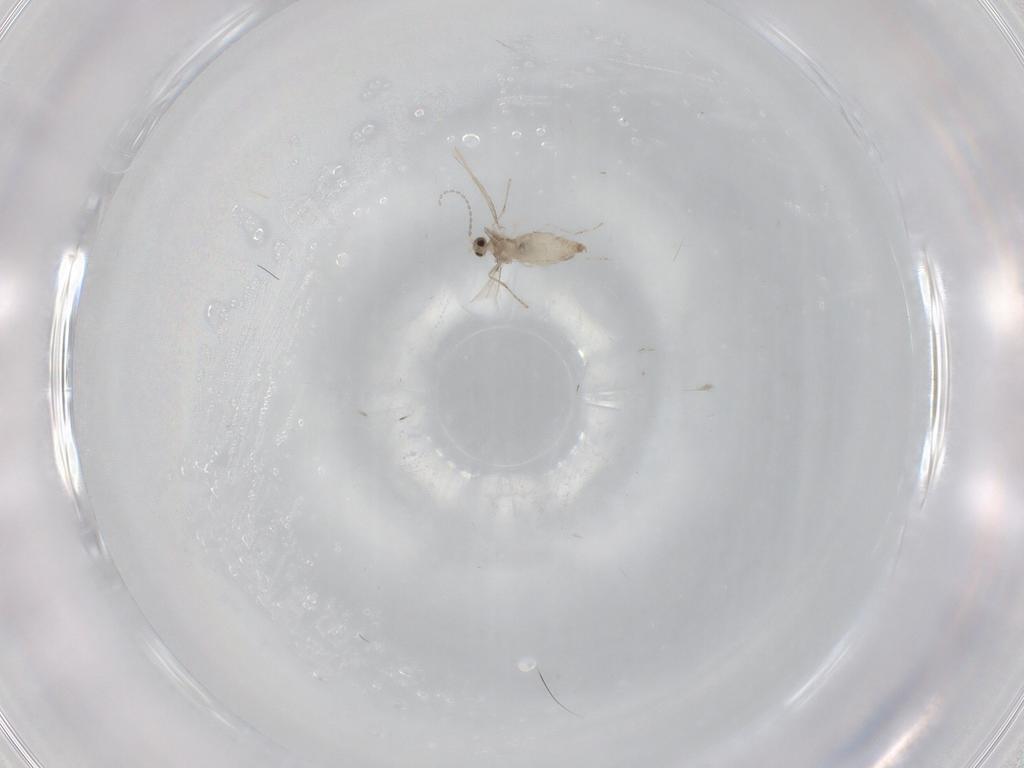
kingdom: Animalia
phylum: Arthropoda
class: Insecta
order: Diptera
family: Cecidomyiidae
